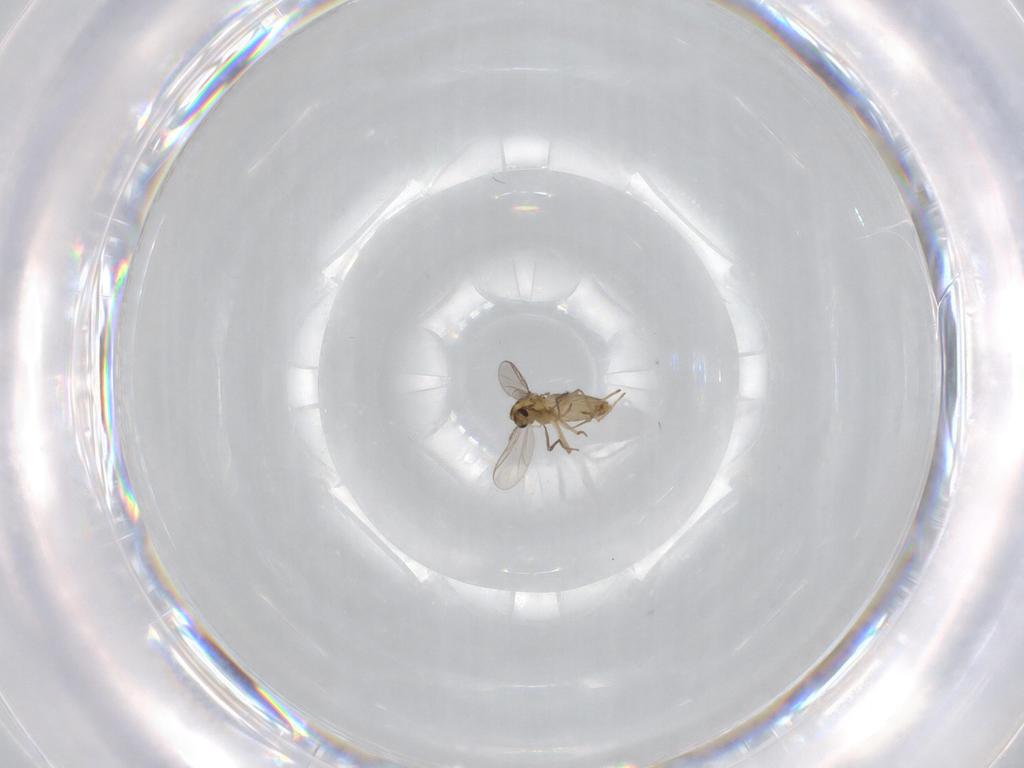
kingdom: Animalia
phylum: Arthropoda
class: Insecta
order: Diptera
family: Chironomidae
